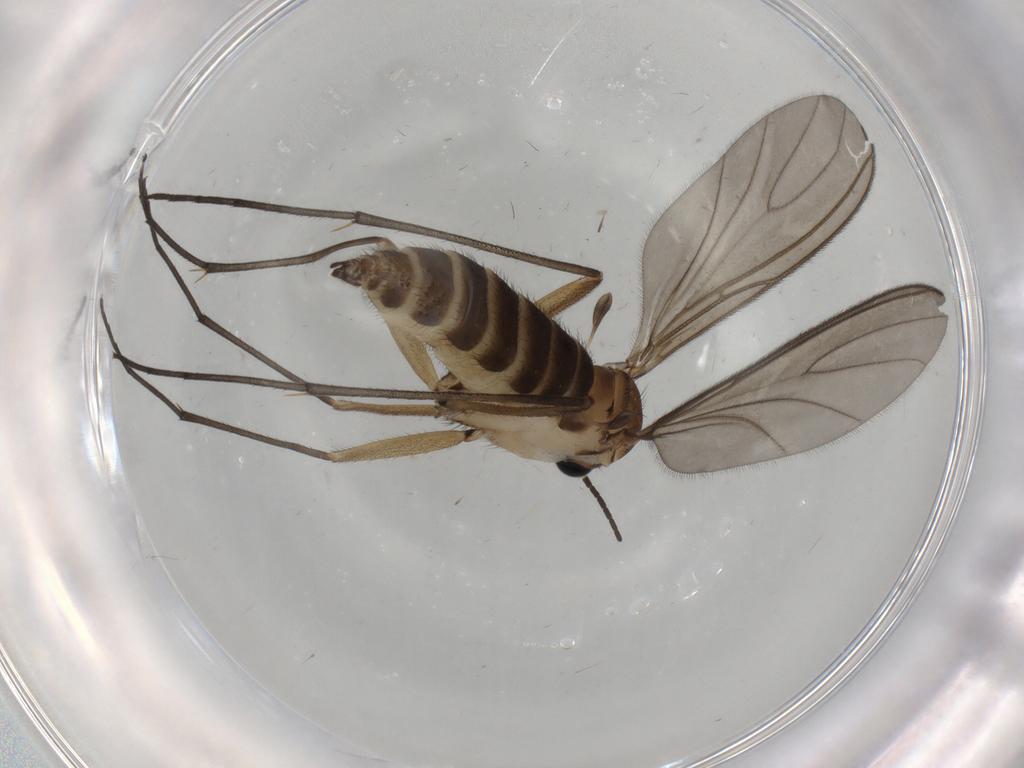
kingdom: Animalia
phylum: Arthropoda
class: Insecta
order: Diptera
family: Sciaridae
